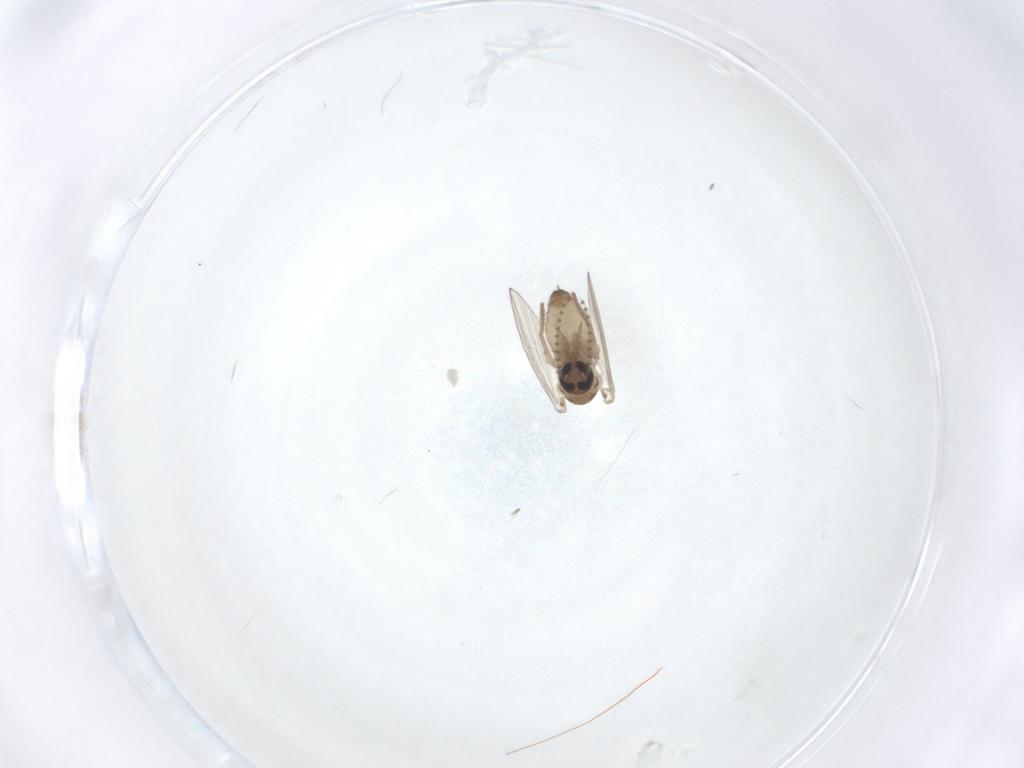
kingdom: Animalia
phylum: Arthropoda
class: Insecta
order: Diptera
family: Psychodidae
